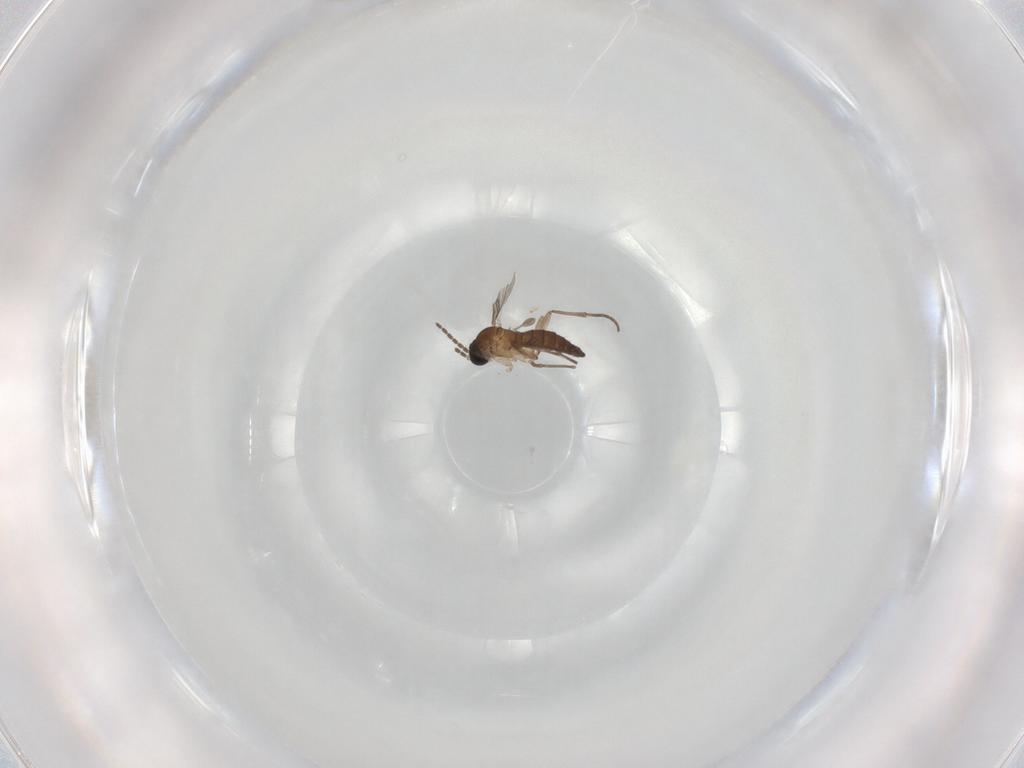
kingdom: Animalia
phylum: Arthropoda
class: Insecta
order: Diptera
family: Sciaridae
